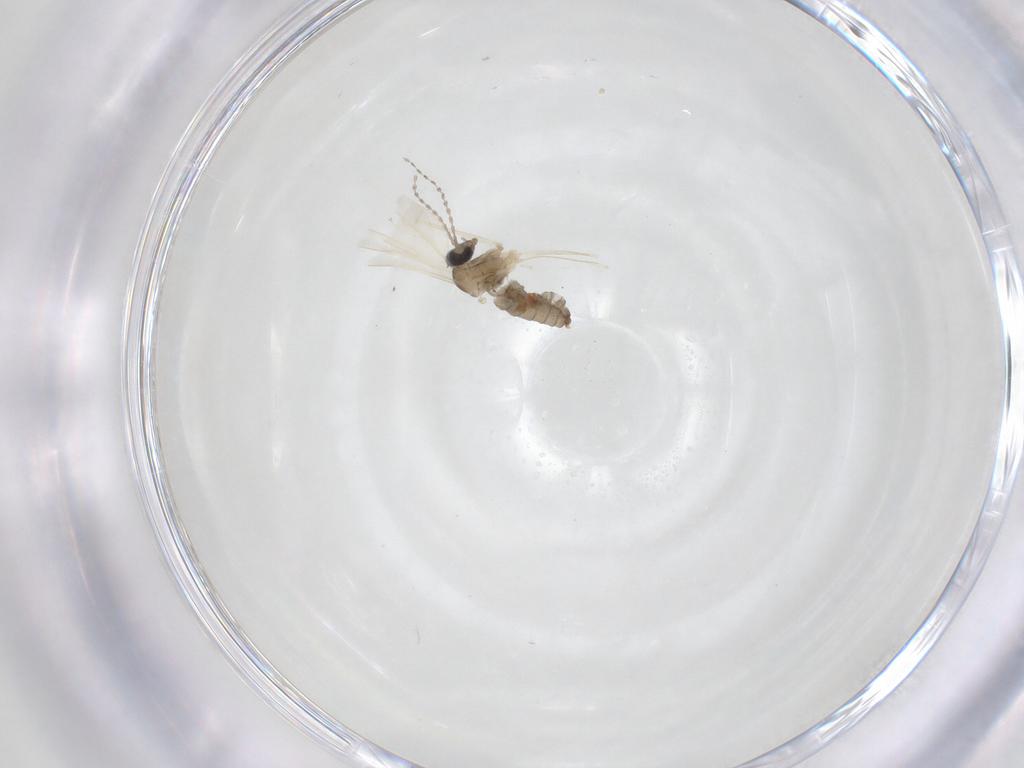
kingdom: Animalia
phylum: Arthropoda
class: Insecta
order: Diptera
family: Cecidomyiidae
